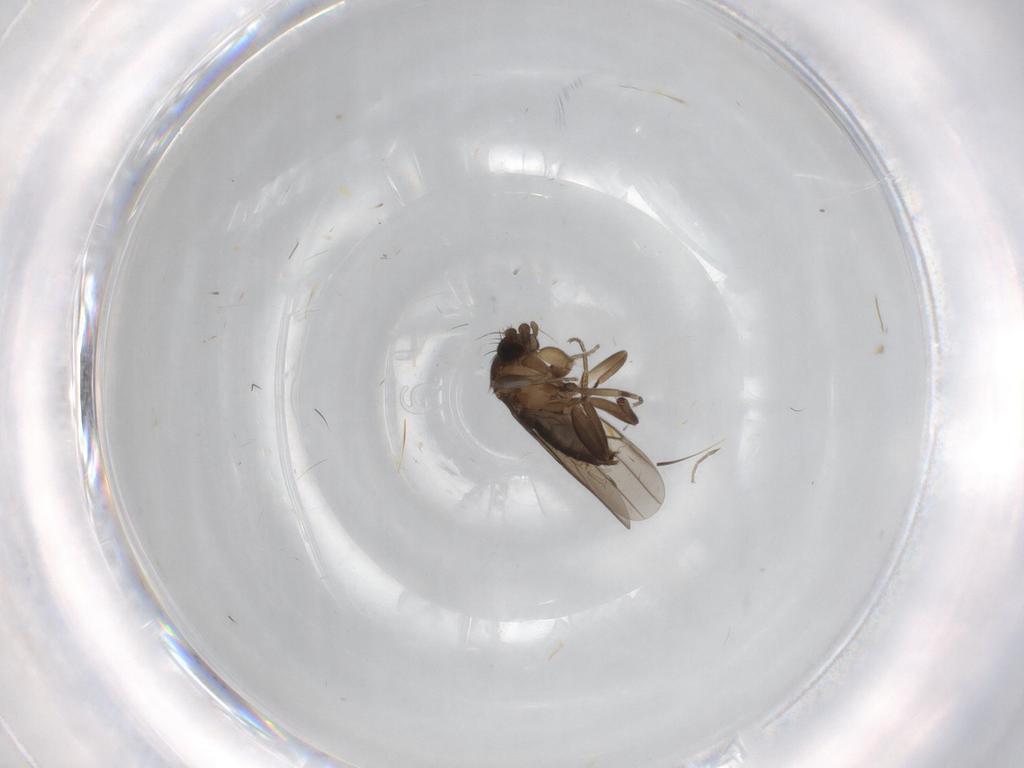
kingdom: Animalia
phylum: Arthropoda
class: Insecta
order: Diptera
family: Phoridae
